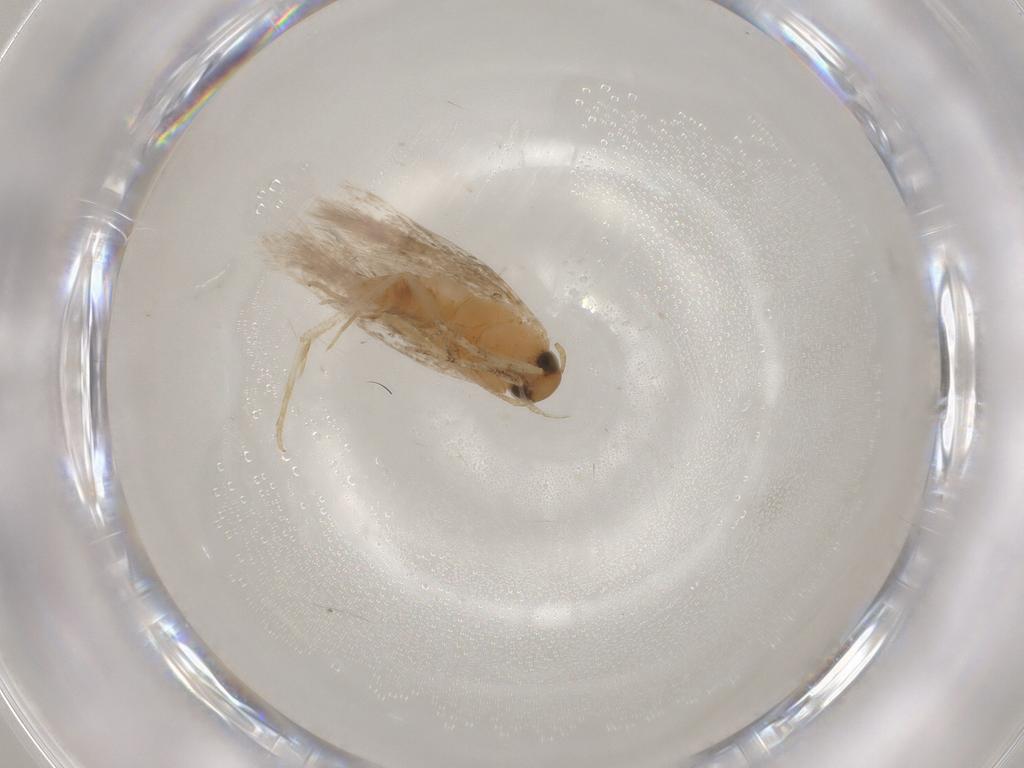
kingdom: Animalia
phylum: Arthropoda
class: Insecta
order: Lepidoptera
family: Gelechiidae
